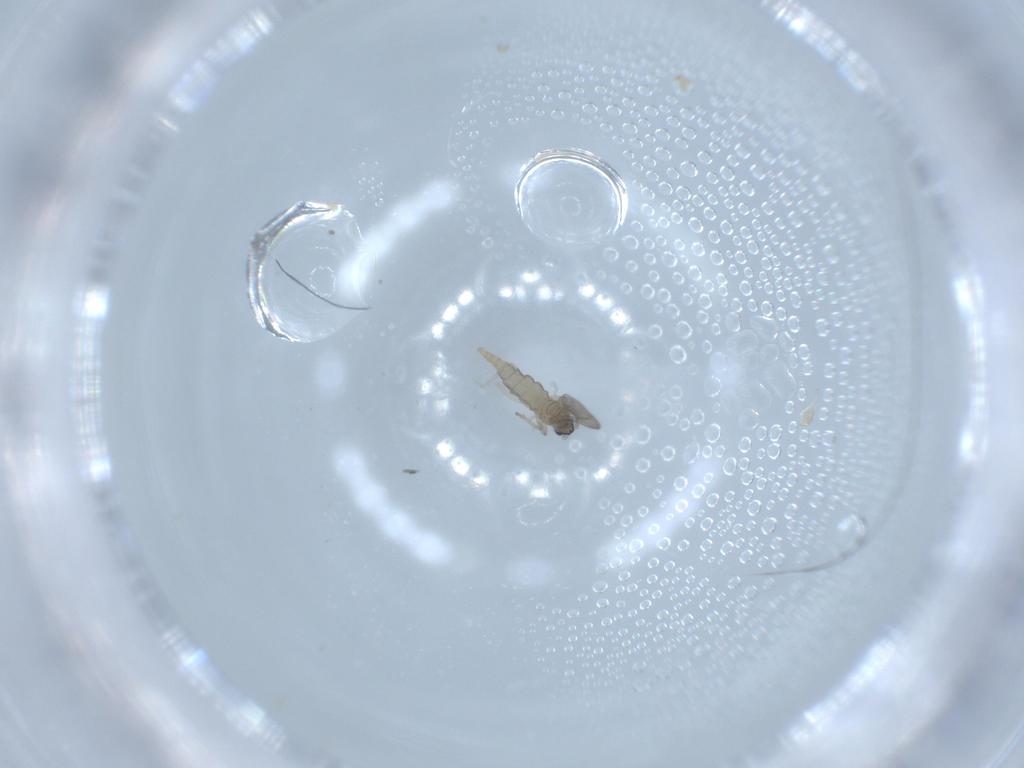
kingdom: Animalia
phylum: Arthropoda
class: Insecta
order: Diptera
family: Cecidomyiidae
